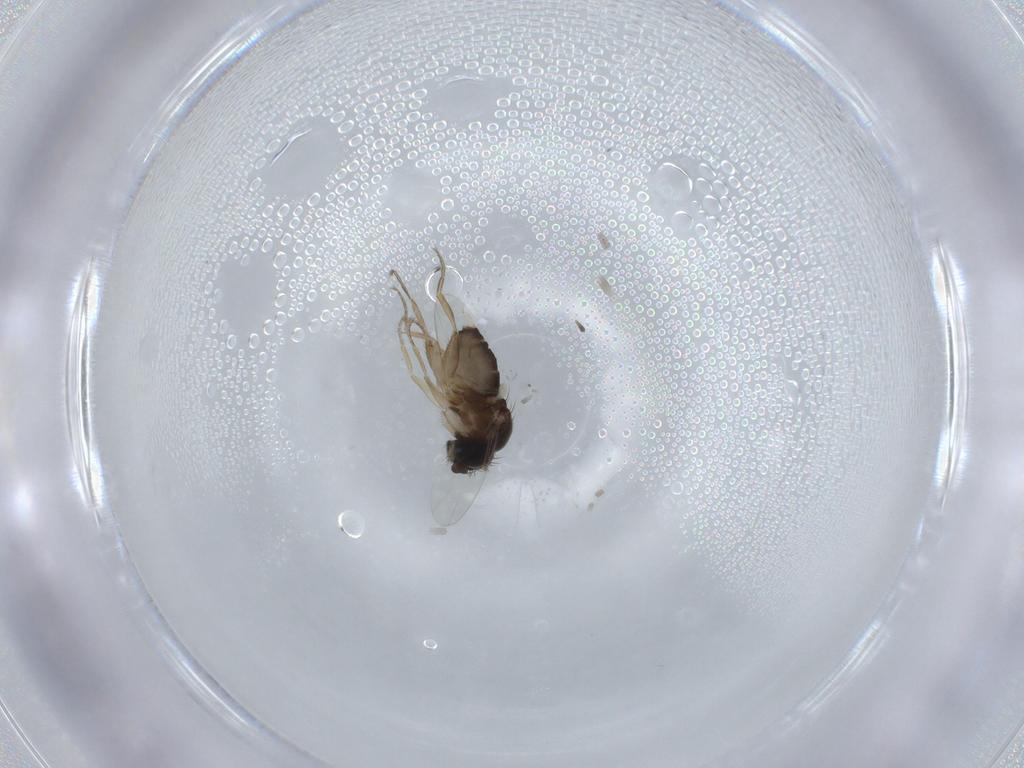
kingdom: Animalia
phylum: Arthropoda
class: Insecta
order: Diptera
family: Phoridae
